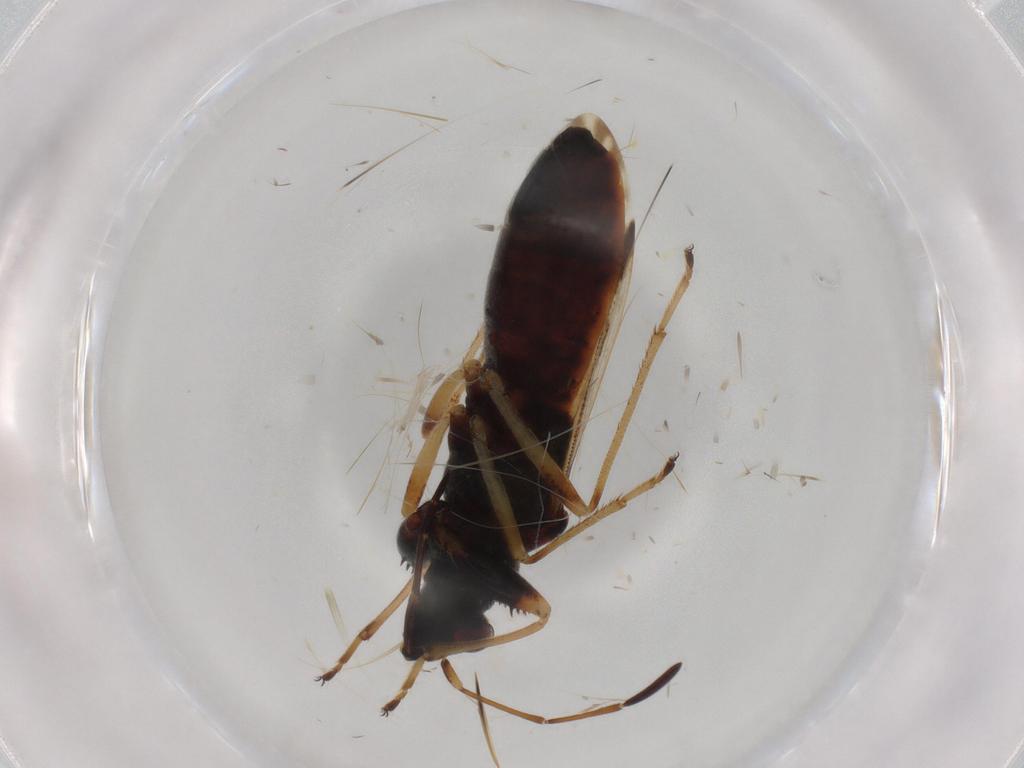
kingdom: Animalia
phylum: Arthropoda
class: Insecta
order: Hemiptera
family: Rhyparochromidae
